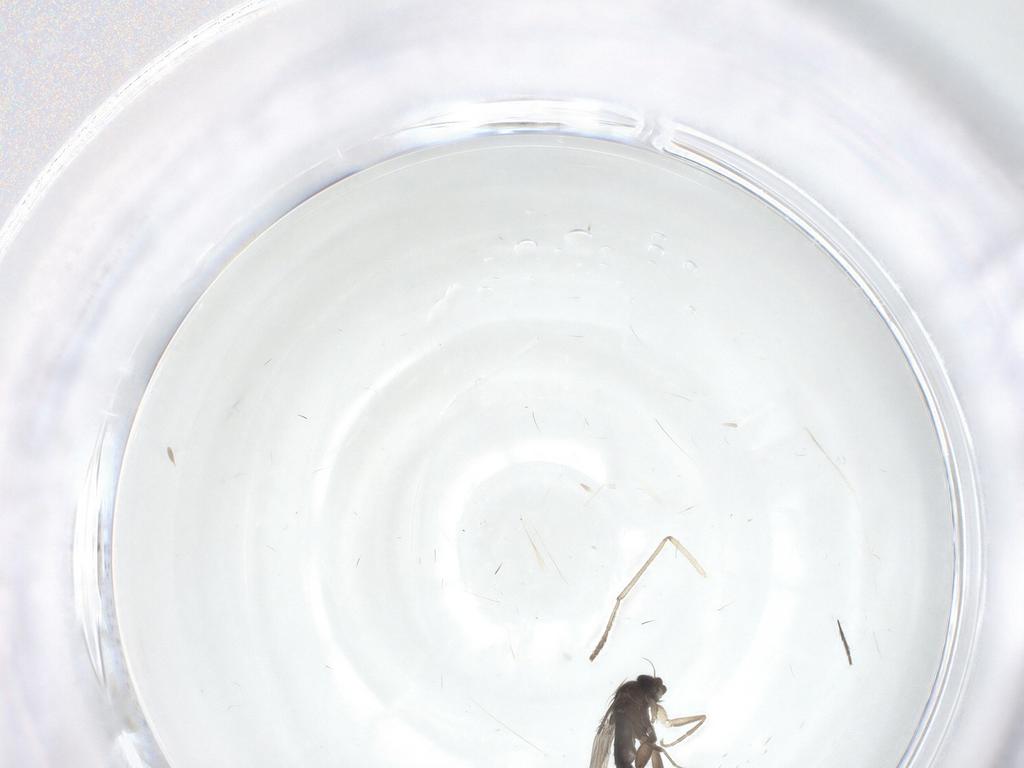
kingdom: Animalia
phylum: Arthropoda
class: Insecta
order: Diptera
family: Phoridae
